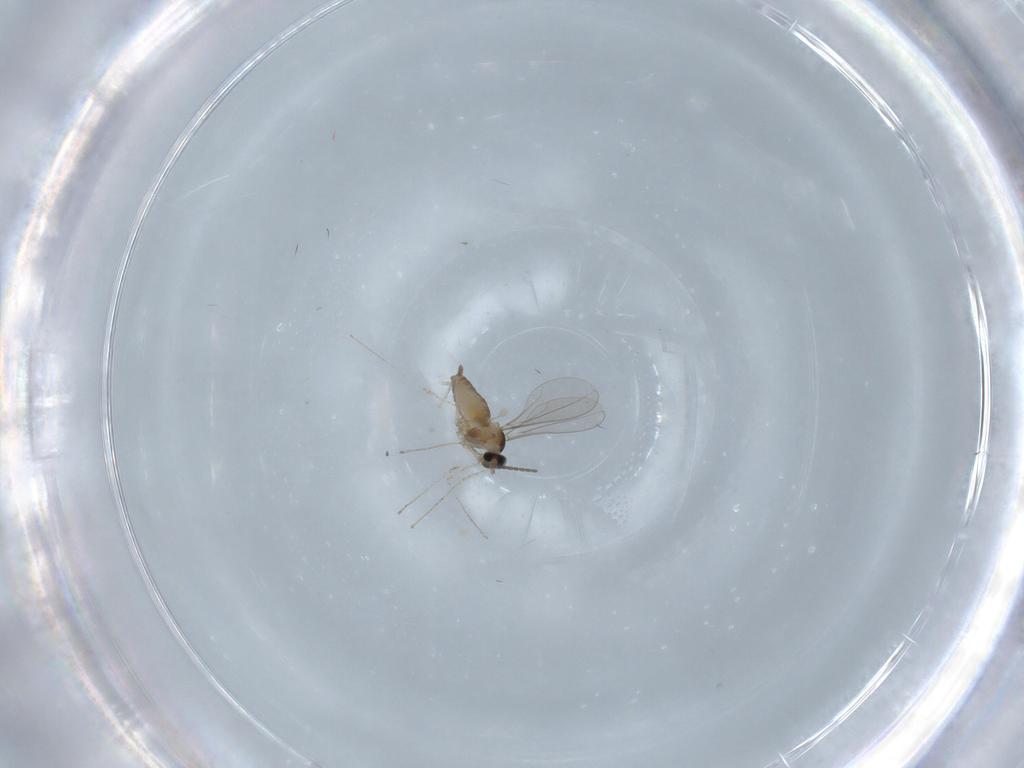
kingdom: Animalia
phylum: Arthropoda
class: Insecta
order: Diptera
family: Cecidomyiidae
